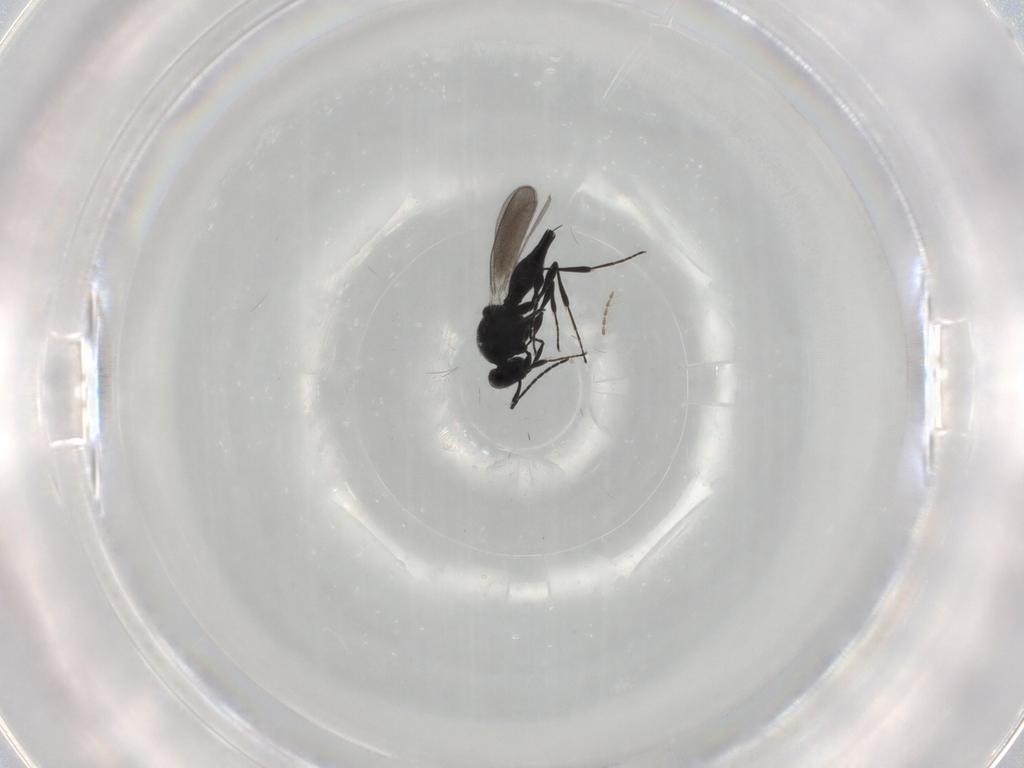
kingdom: Animalia
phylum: Arthropoda
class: Insecta
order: Diptera
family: Mythicomyiidae
